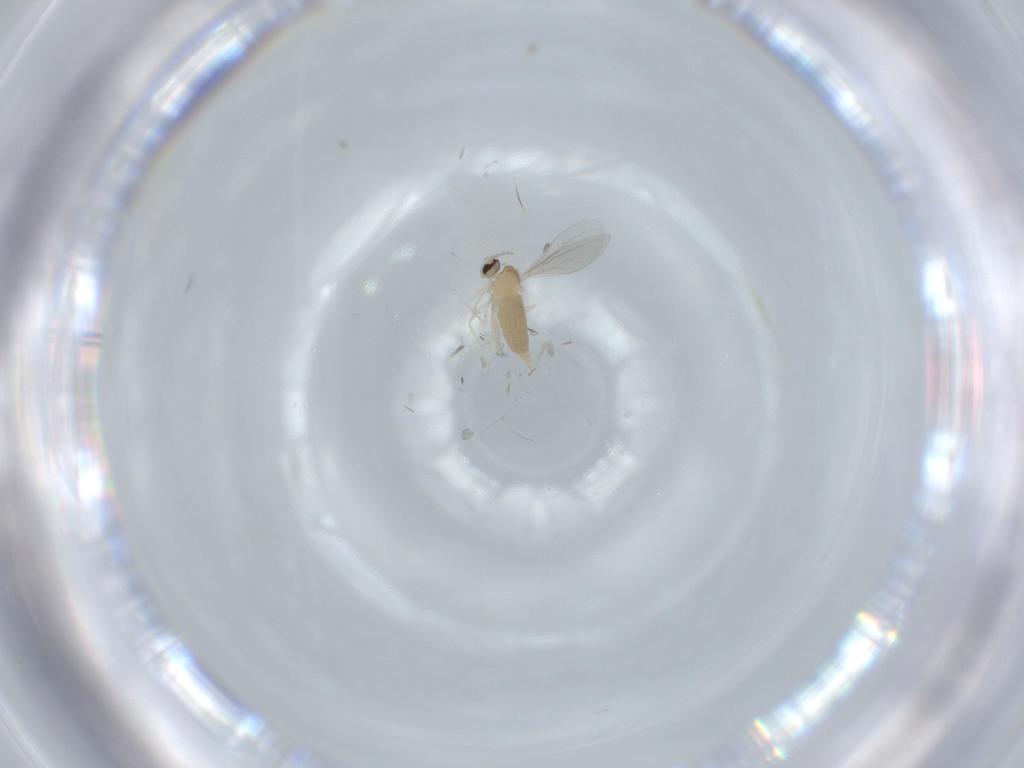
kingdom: Animalia
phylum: Arthropoda
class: Insecta
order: Diptera
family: Cecidomyiidae
